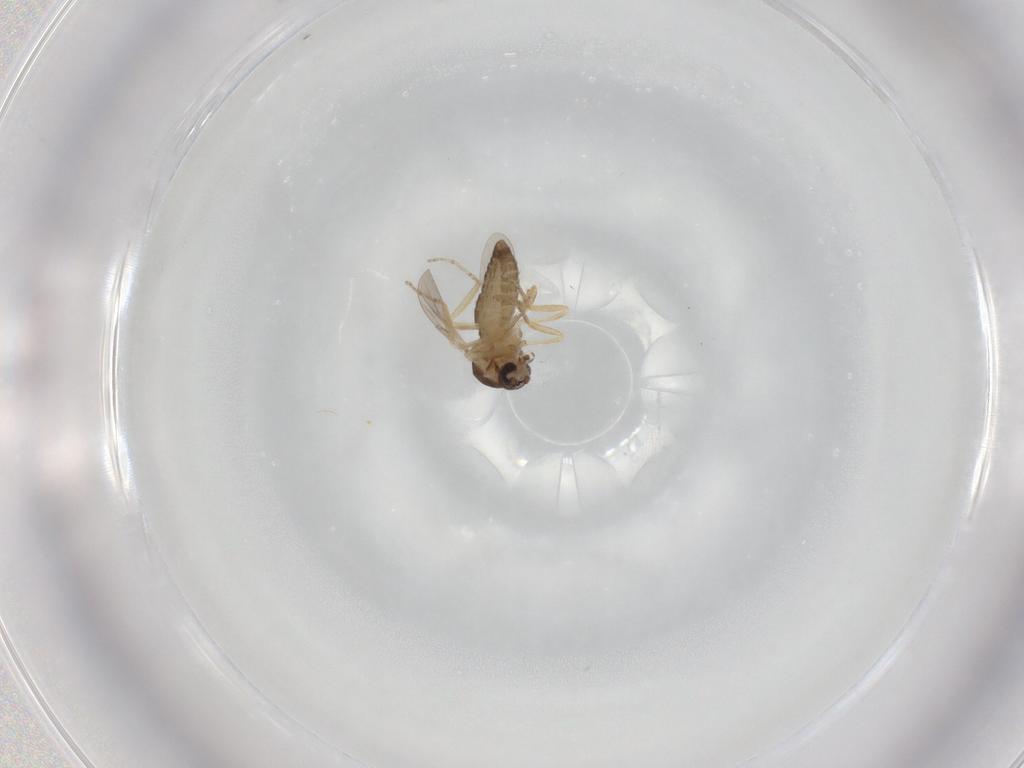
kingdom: Animalia
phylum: Arthropoda
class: Insecta
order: Diptera
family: Ceratopogonidae
